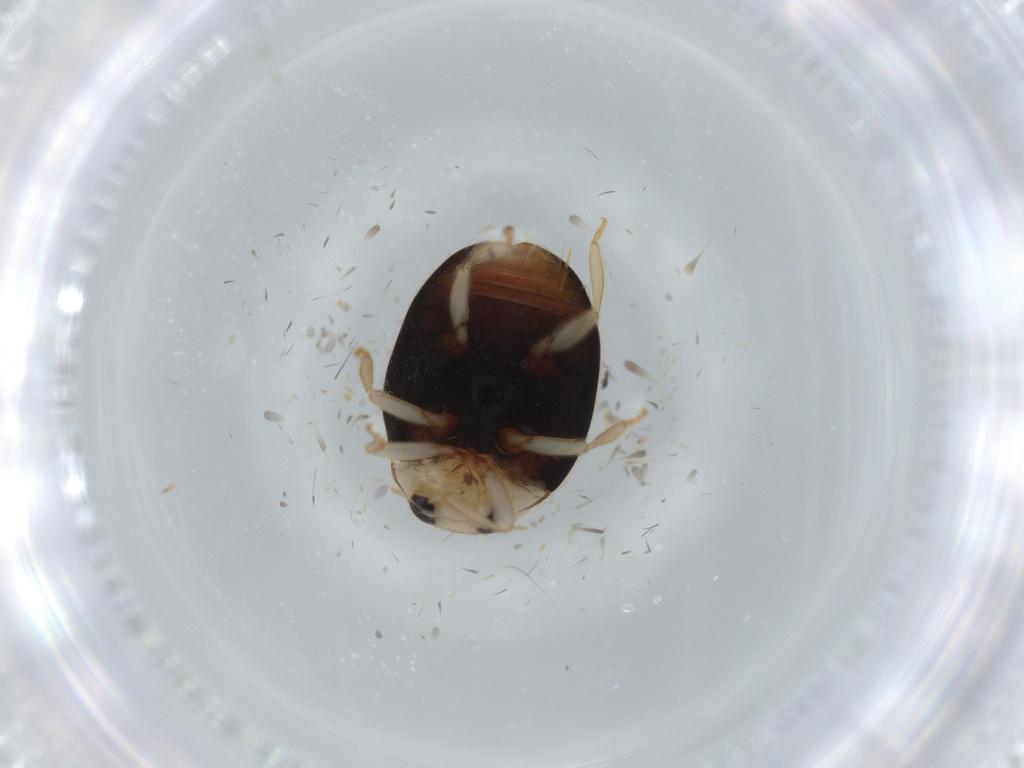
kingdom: Animalia
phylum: Arthropoda
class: Insecta
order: Coleoptera
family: Coccinellidae
